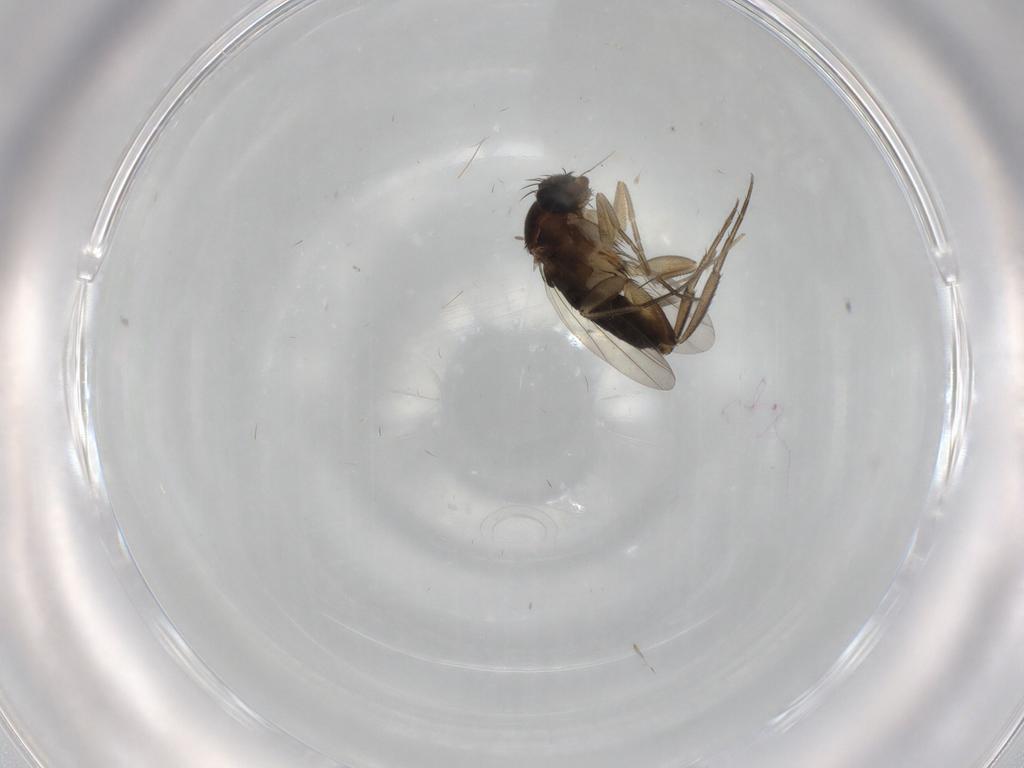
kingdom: Animalia
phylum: Arthropoda
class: Insecta
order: Diptera
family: Phoridae
